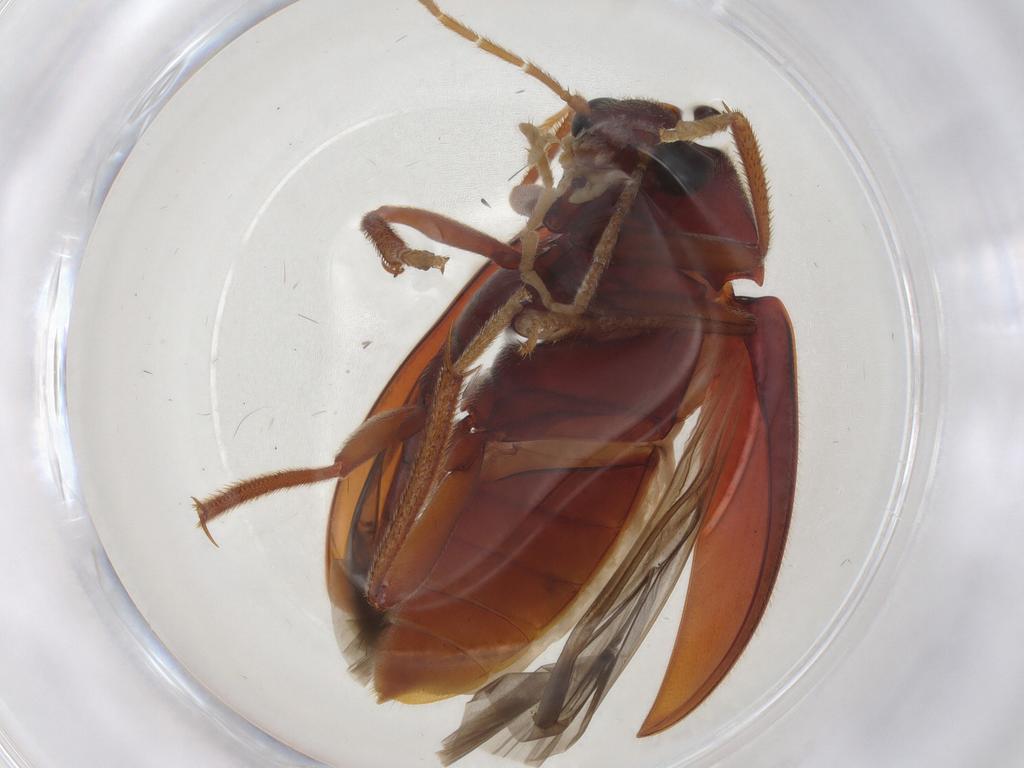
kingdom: Animalia
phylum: Arthropoda
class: Insecta
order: Coleoptera
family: Ptilodactylidae
